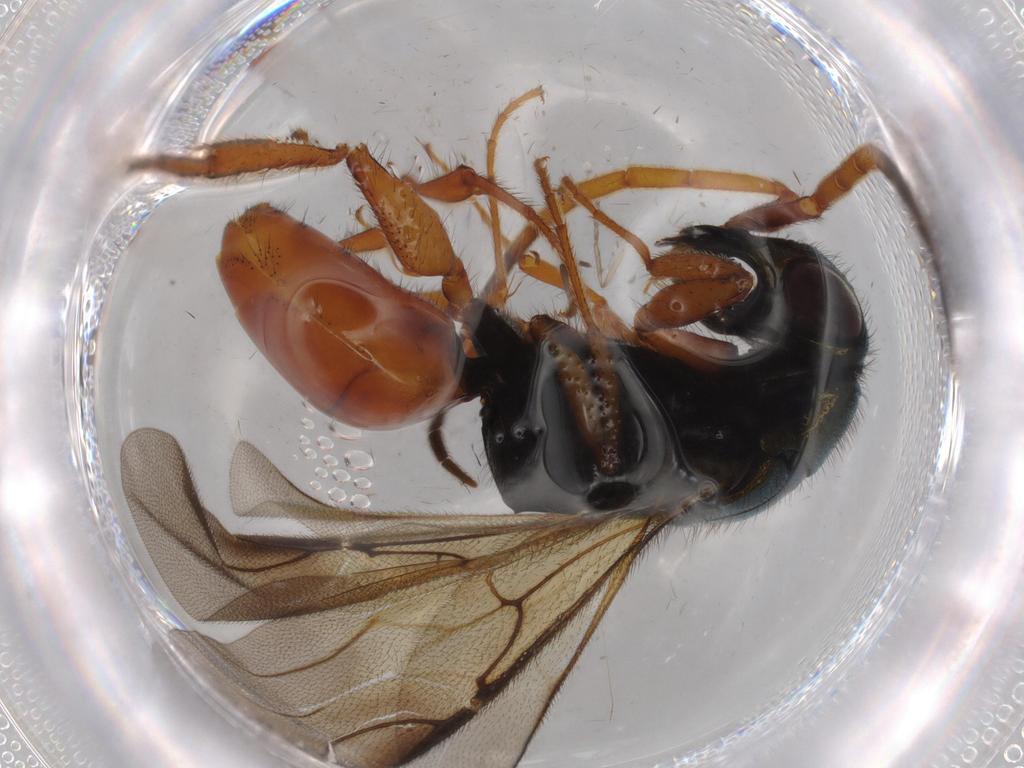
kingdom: Animalia
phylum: Arthropoda
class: Insecta
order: Hymenoptera
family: Chrysididae
